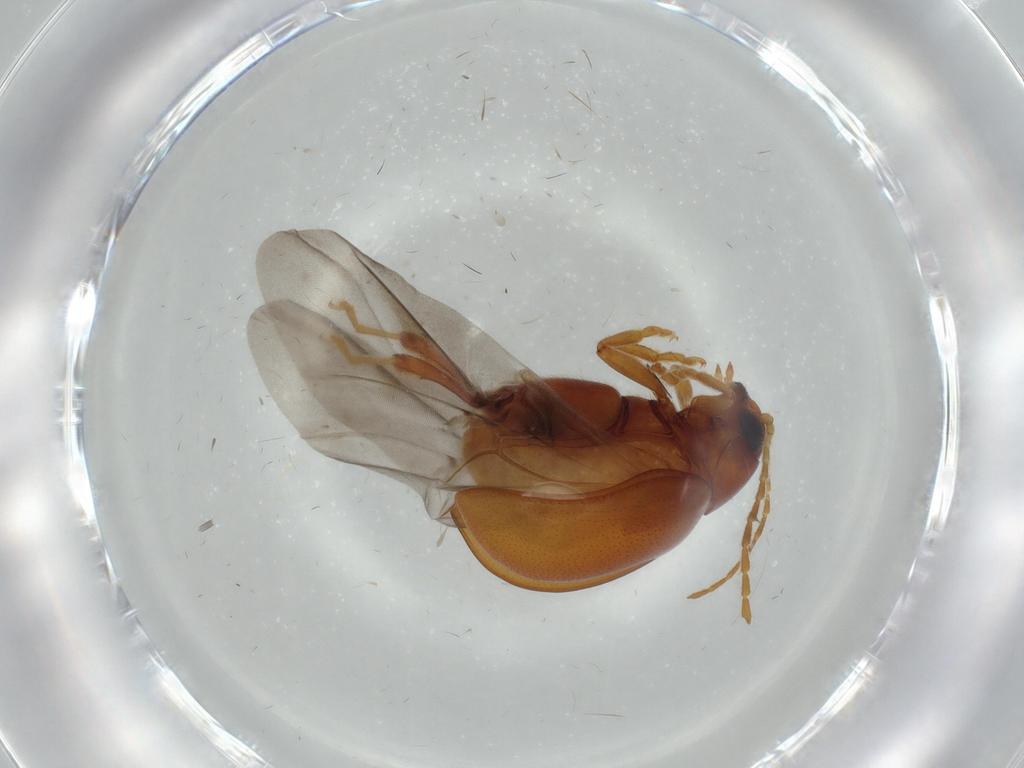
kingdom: Animalia
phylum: Arthropoda
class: Insecta
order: Coleoptera
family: Chrysomelidae
